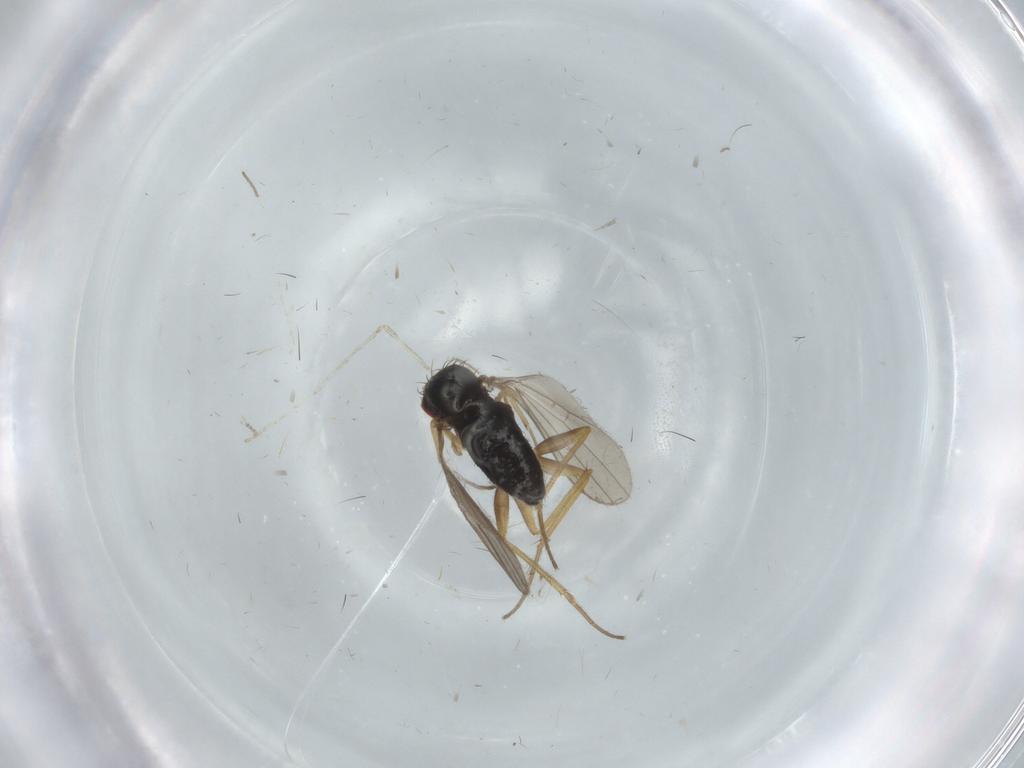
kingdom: Animalia
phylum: Arthropoda
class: Insecta
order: Diptera
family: Dolichopodidae
